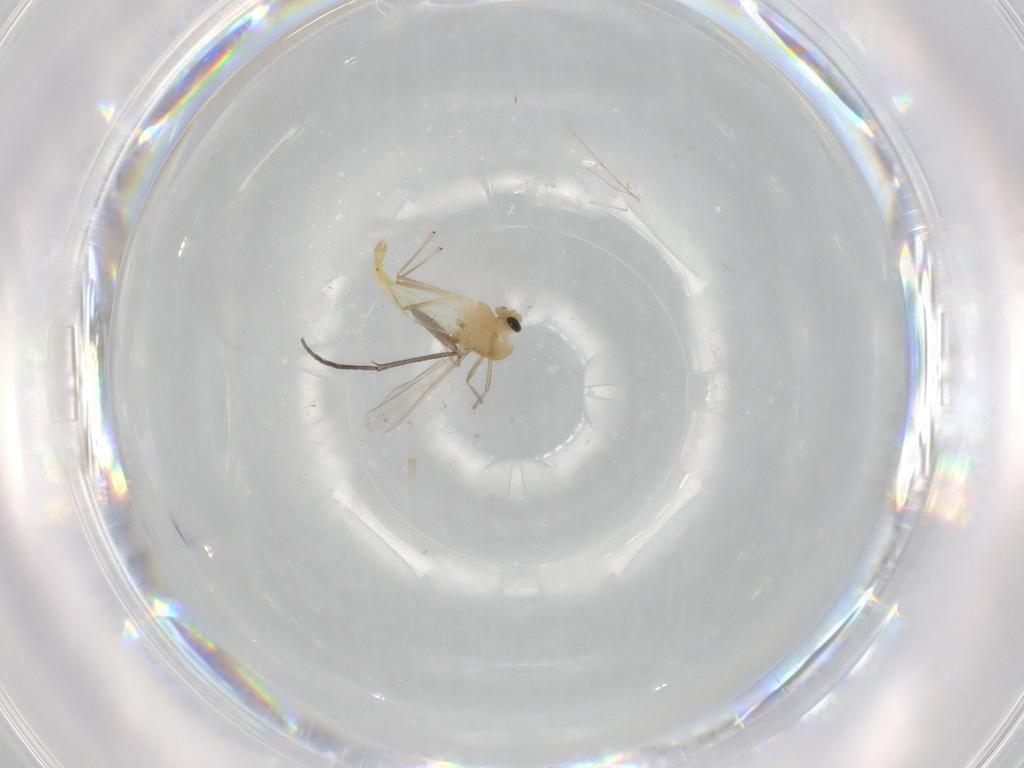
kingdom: Animalia
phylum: Arthropoda
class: Insecta
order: Diptera
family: Chironomidae
